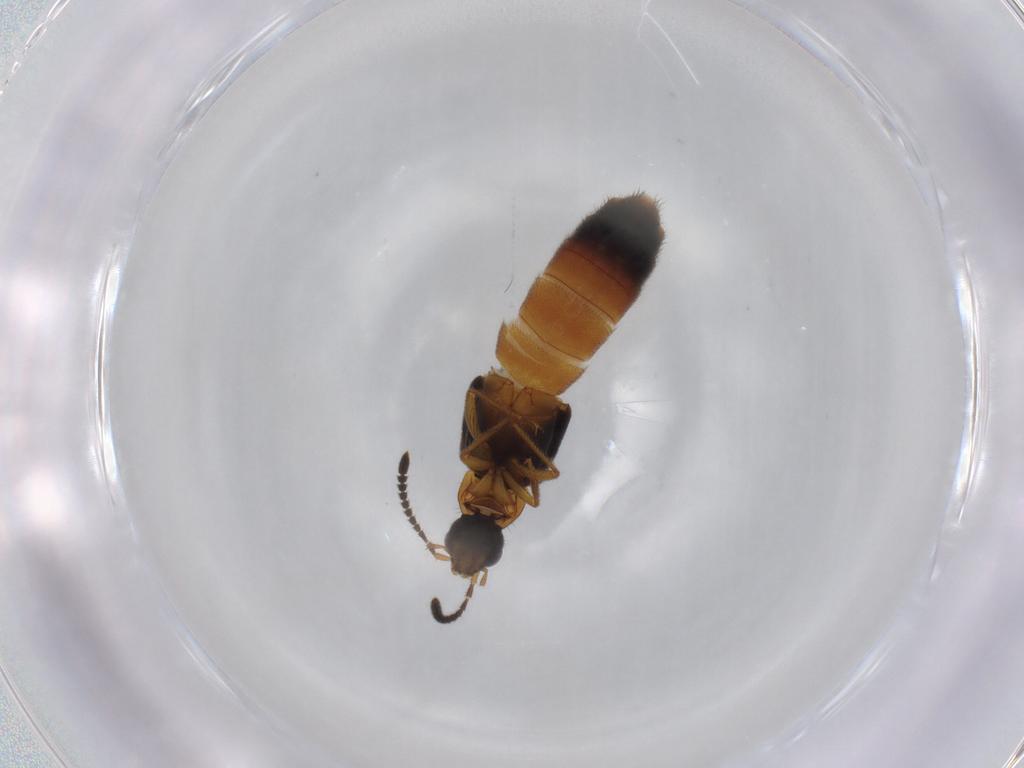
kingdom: Animalia
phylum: Arthropoda
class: Insecta
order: Coleoptera
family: Staphylinidae
